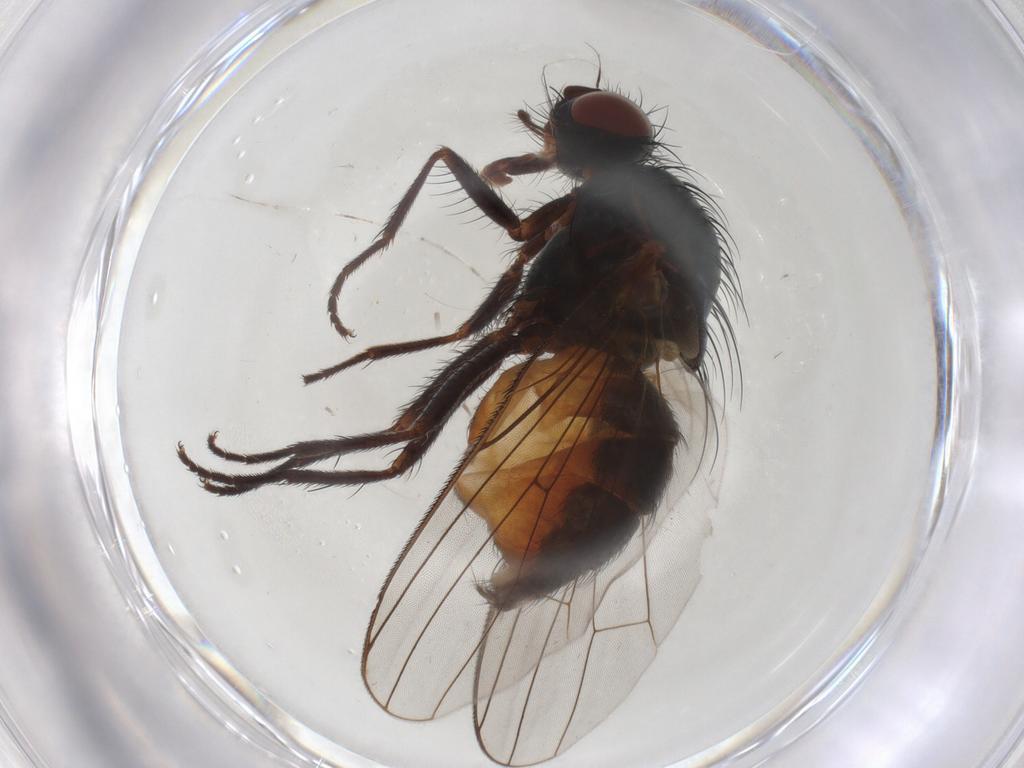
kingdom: Animalia
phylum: Arthropoda
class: Insecta
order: Diptera
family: Anthomyiidae
